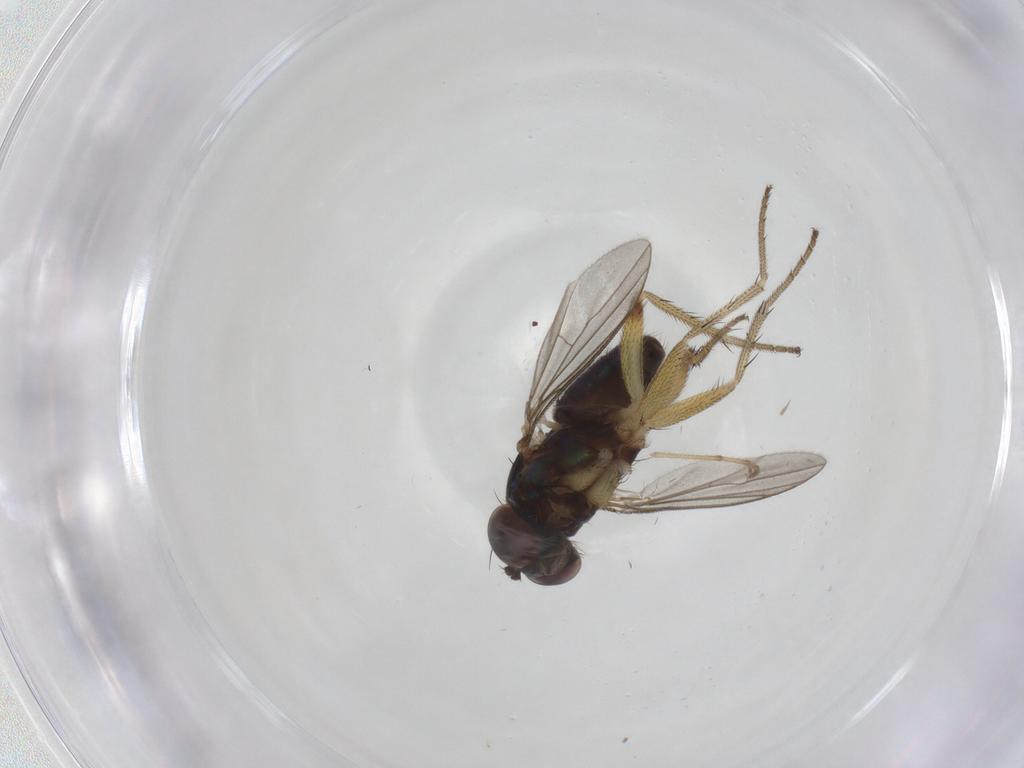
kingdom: Animalia
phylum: Arthropoda
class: Insecta
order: Diptera
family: Dolichopodidae
